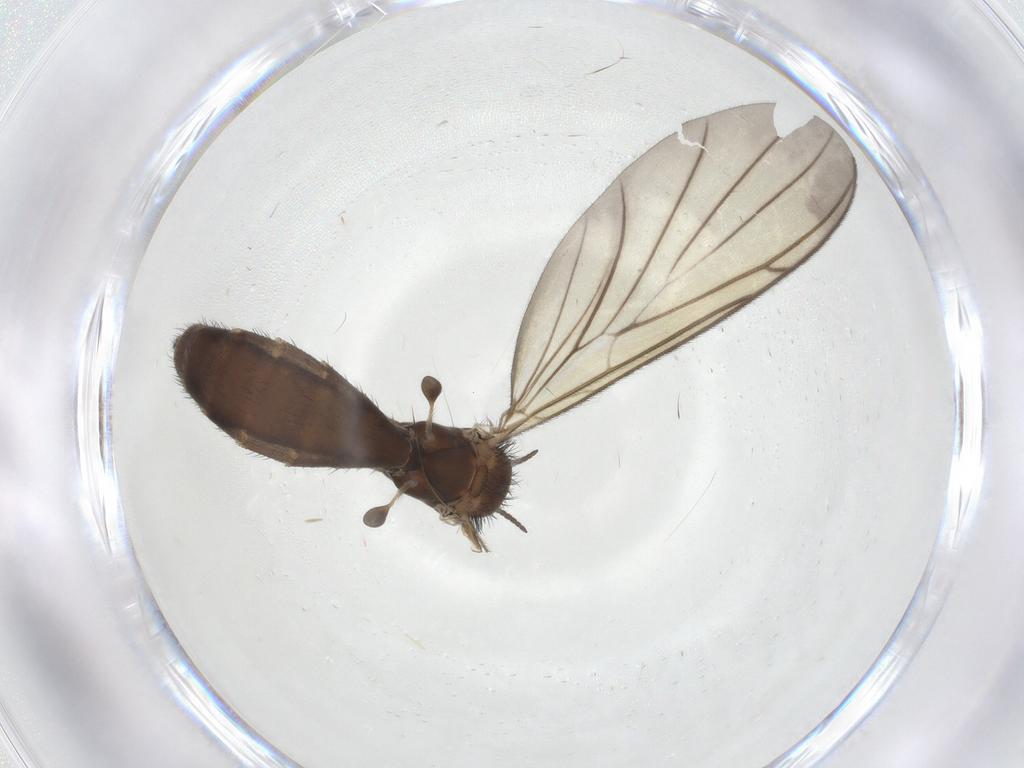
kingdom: Animalia
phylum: Arthropoda
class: Insecta
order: Diptera
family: Keroplatidae
